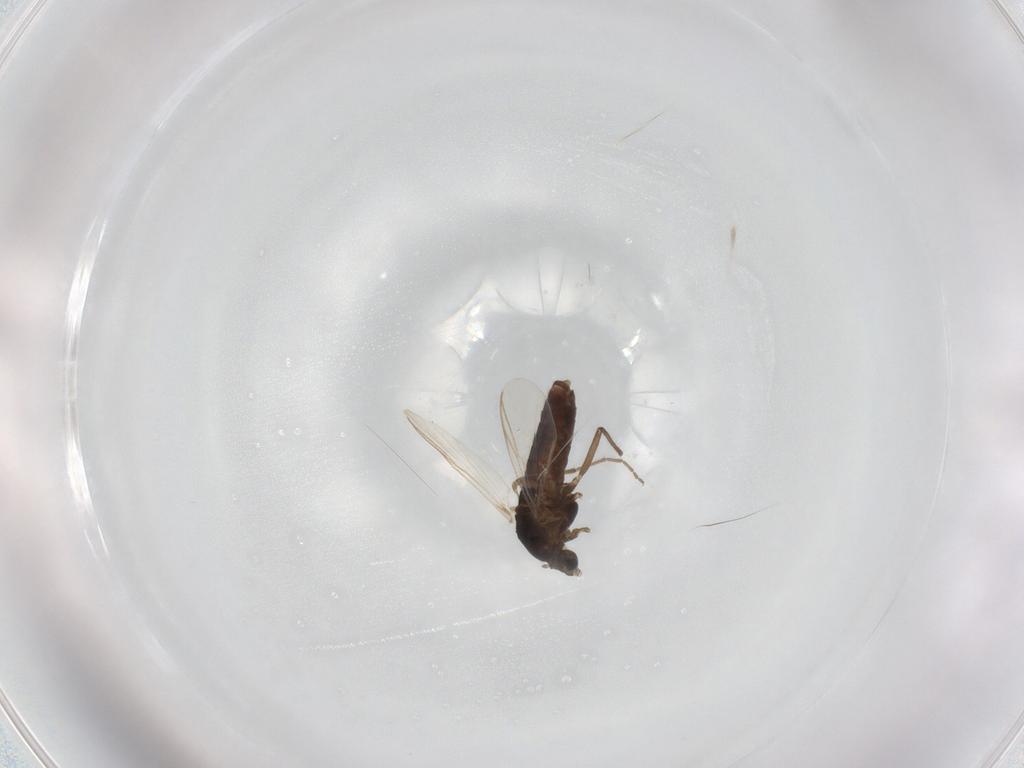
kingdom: Animalia
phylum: Arthropoda
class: Insecta
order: Diptera
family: Chironomidae
